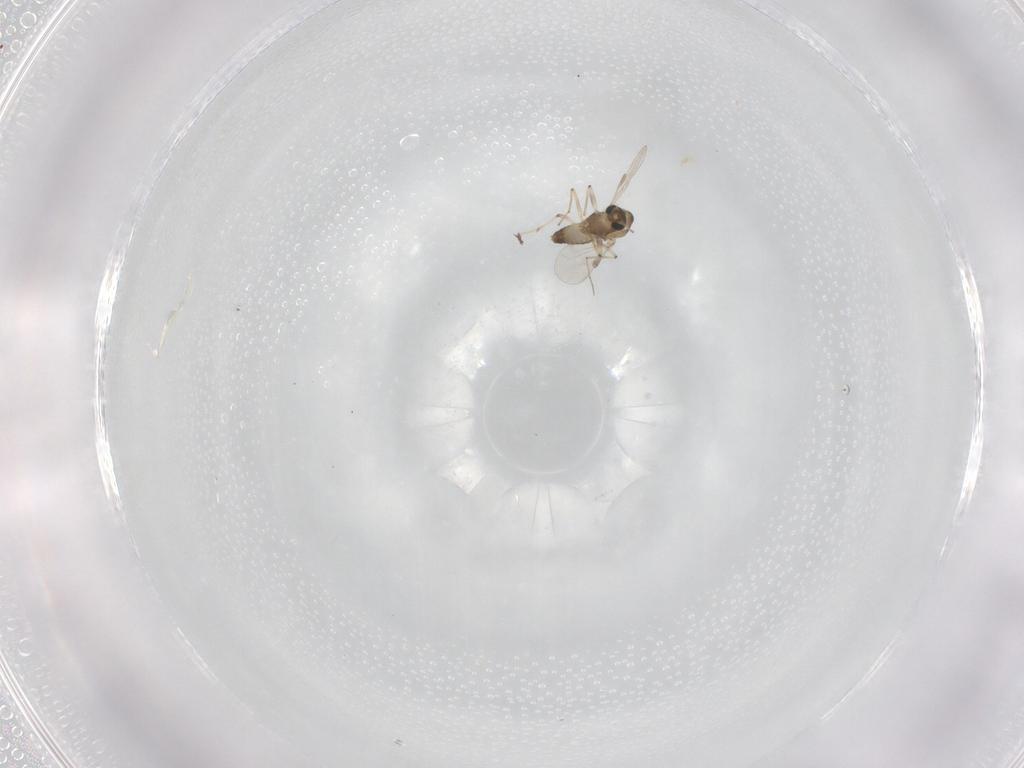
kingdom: Animalia
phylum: Arthropoda
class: Insecta
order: Diptera
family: Chironomidae
